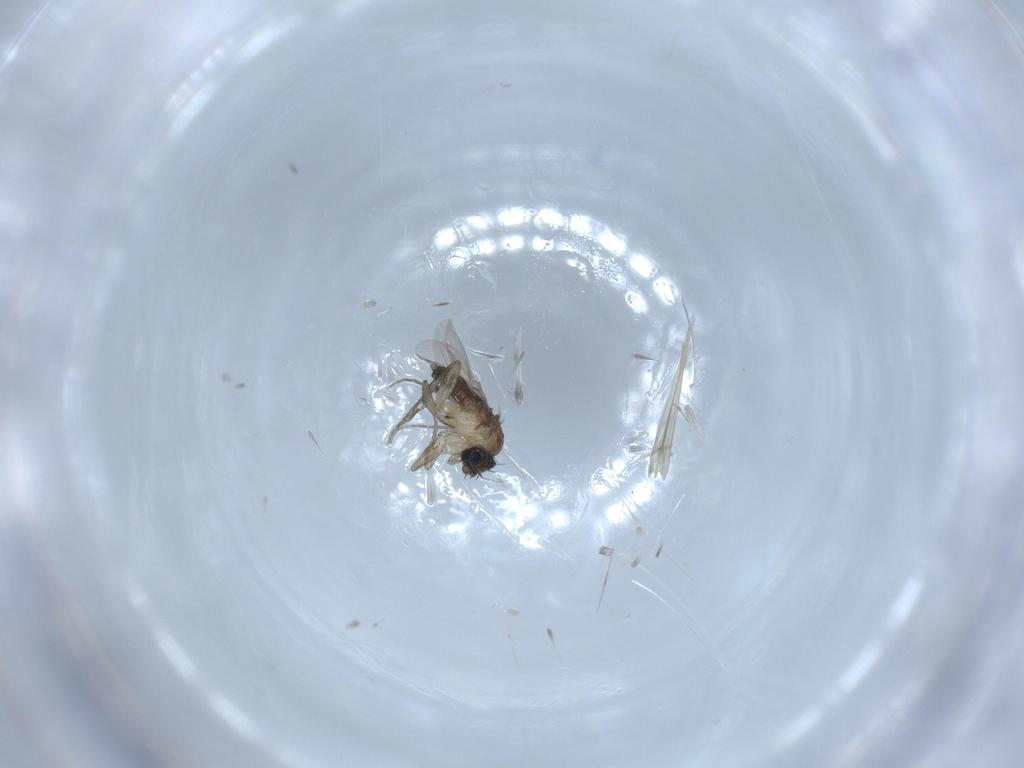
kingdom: Animalia
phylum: Arthropoda
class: Insecta
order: Diptera
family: Phoridae
